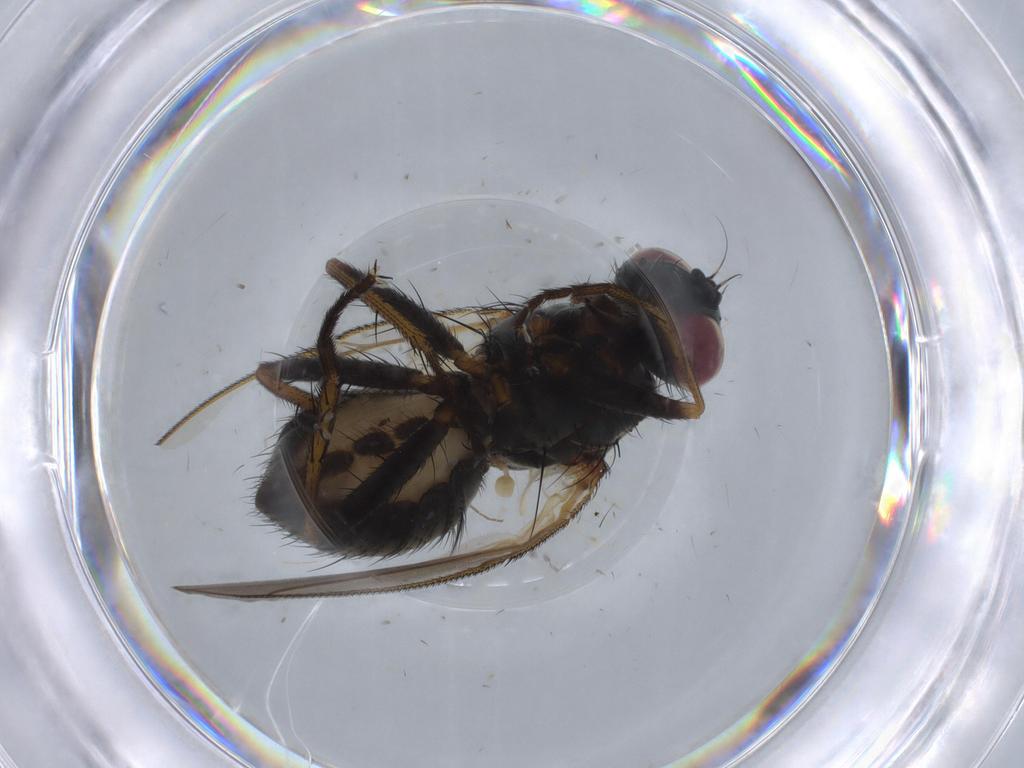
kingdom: Animalia
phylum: Arthropoda
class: Insecta
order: Diptera
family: Muscidae
